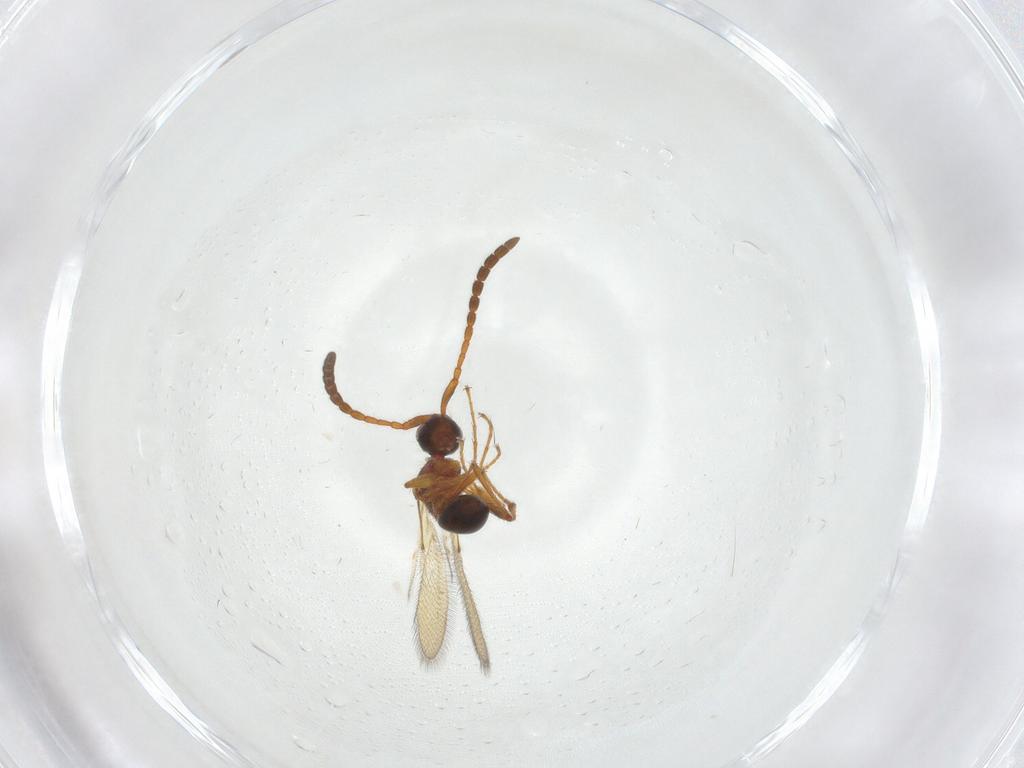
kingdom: Animalia
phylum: Arthropoda
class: Insecta
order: Hymenoptera
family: Diapriidae
